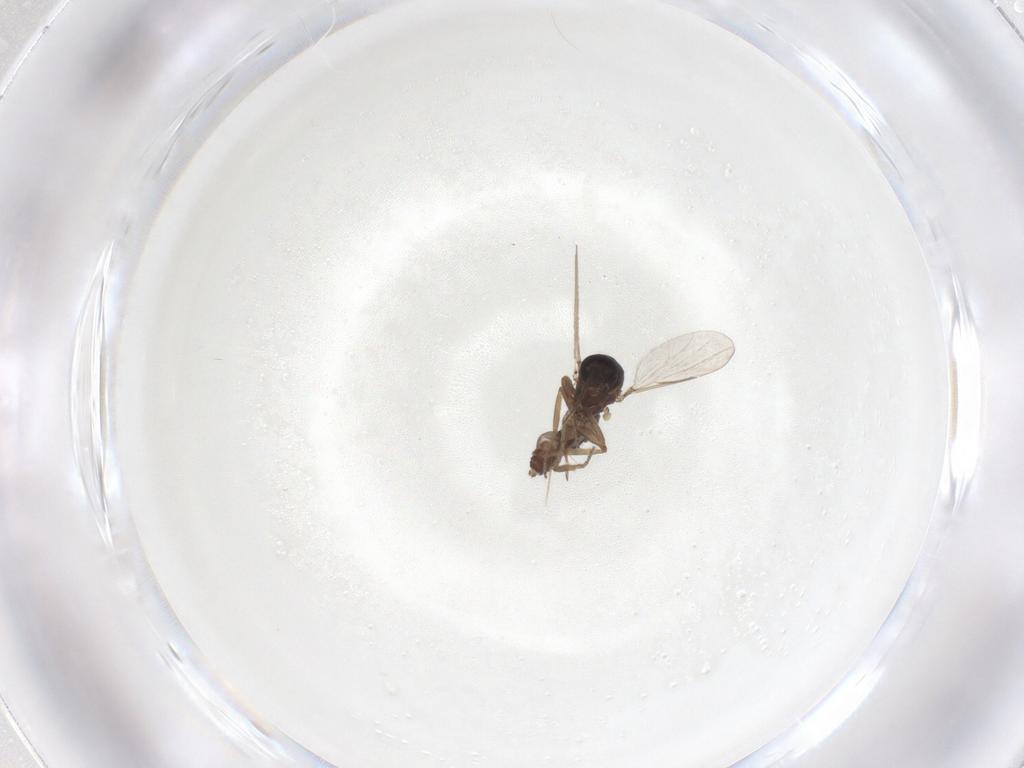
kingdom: Animalia
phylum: Arthropoda
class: Insecta
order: Diptera
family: Ceratopogonidae
